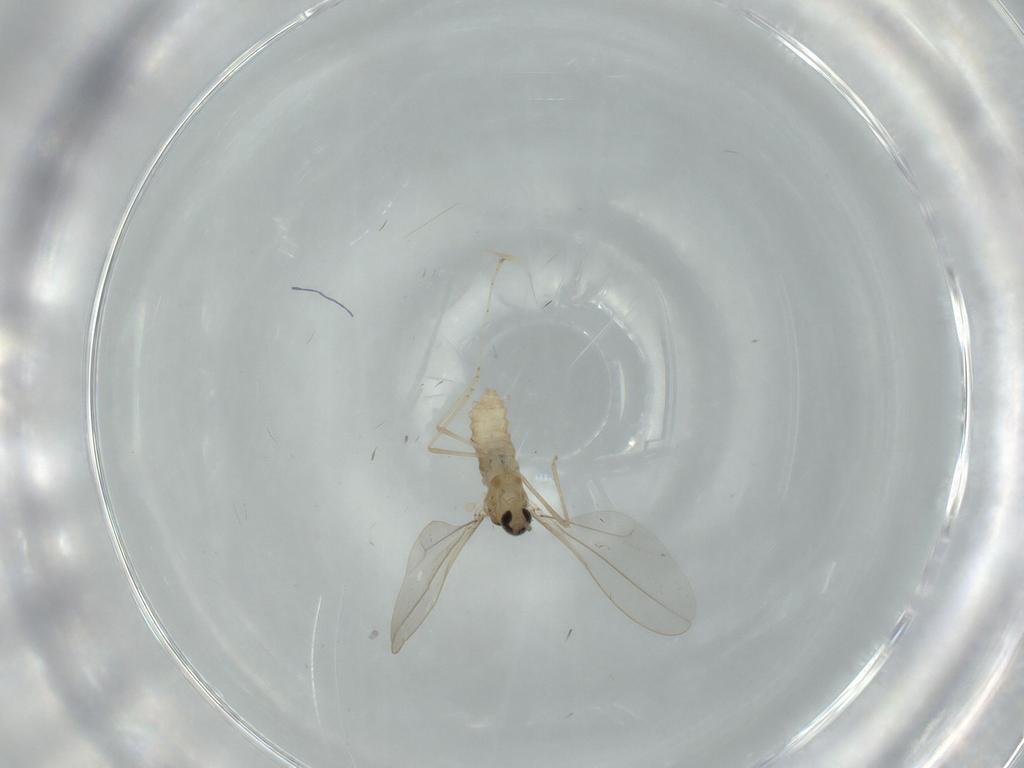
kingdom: Animalia
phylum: Arthropoda
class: Insecta
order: Diptera
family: Cecidomyiidae
